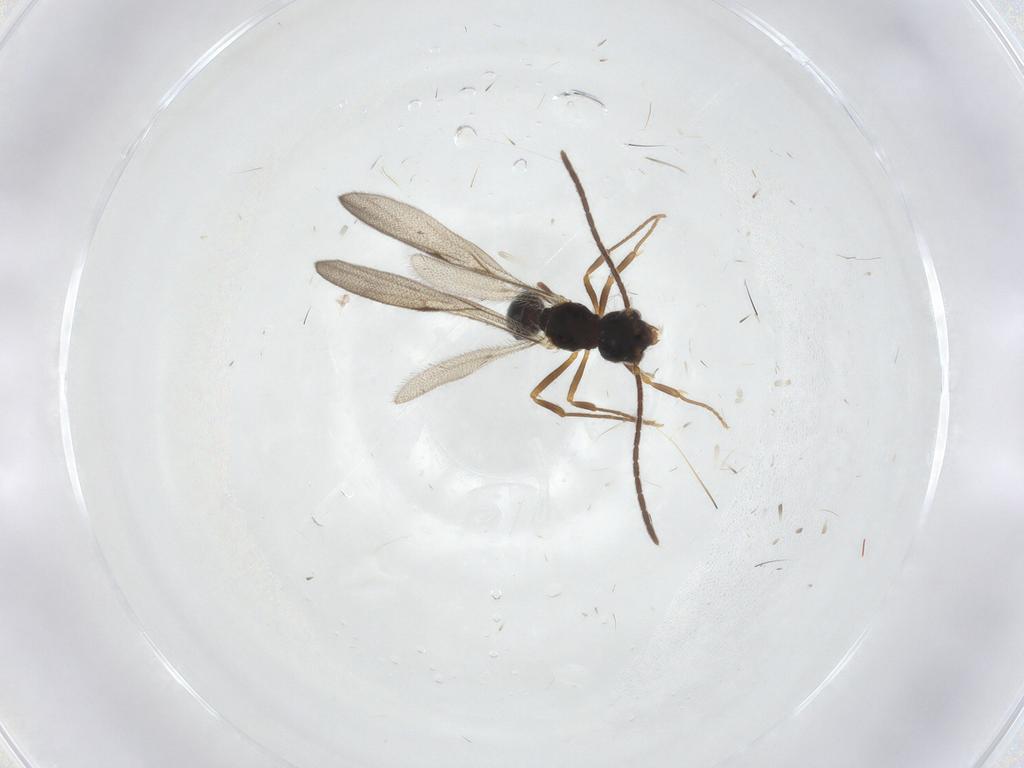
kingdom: Animalia
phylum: Arthropoda
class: Insecta
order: Hymenoptera
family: Formicidae
